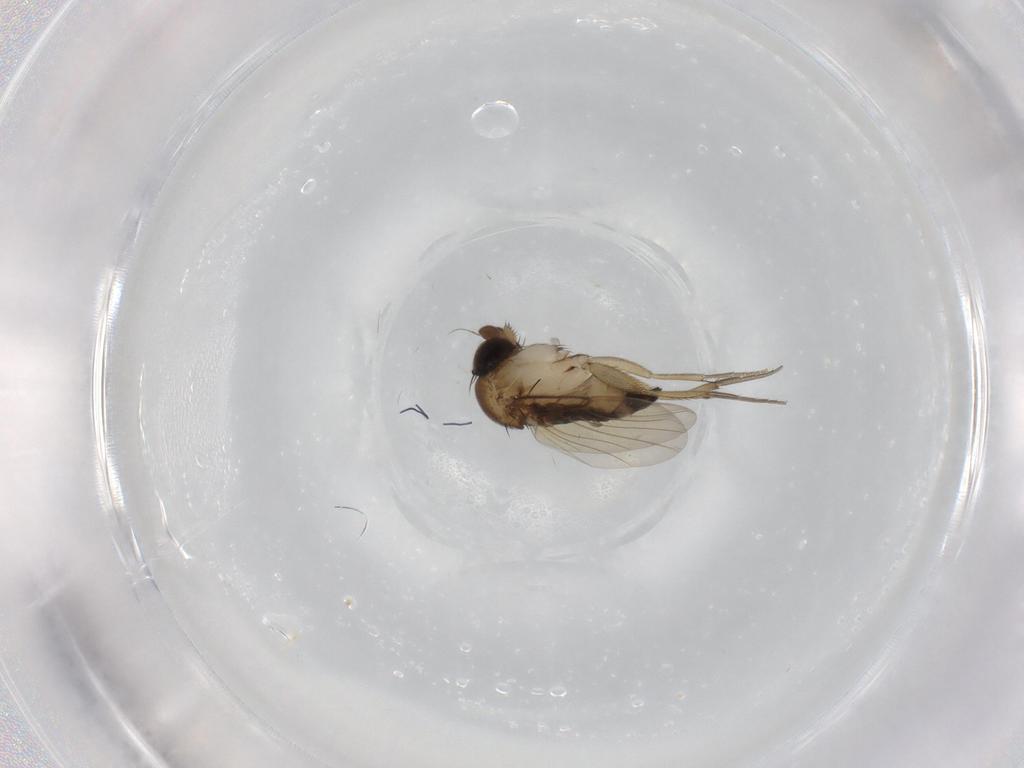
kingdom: Animalia
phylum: Arthropoda
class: Insecta
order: Diptera
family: Phoridae
